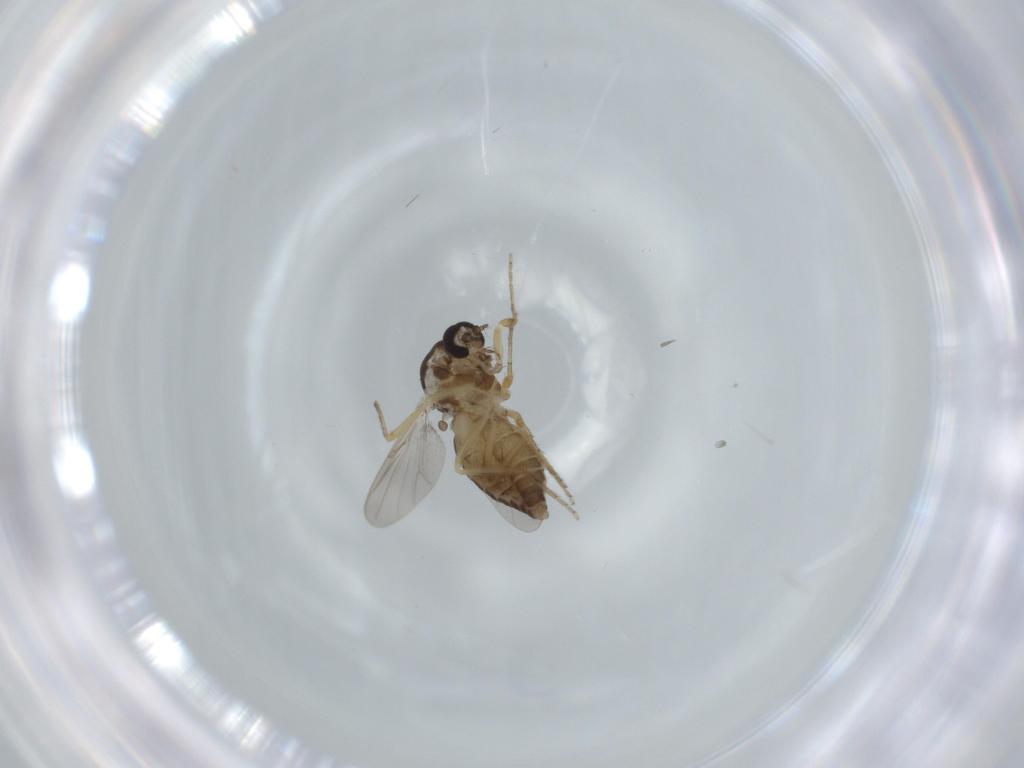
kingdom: Animalia
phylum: Arthropoda
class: Insecta
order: Diptera
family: Ceratopogonidae
